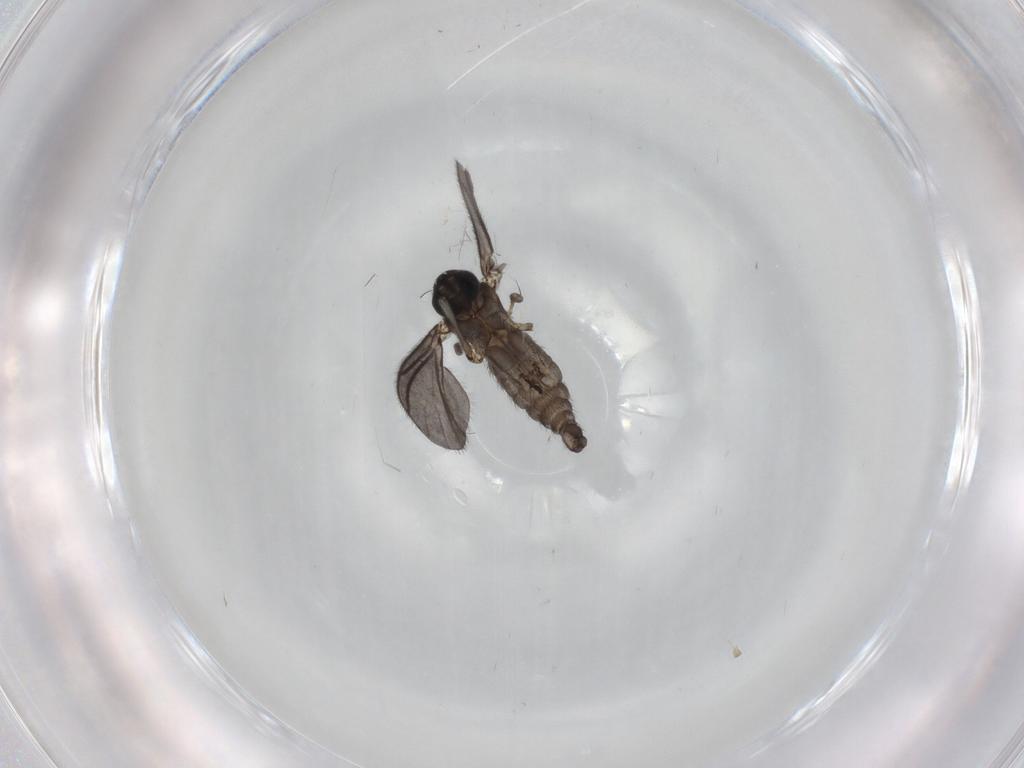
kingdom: Animalia
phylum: Arthropoda
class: Insecta
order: Diptera
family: Sciaridae
